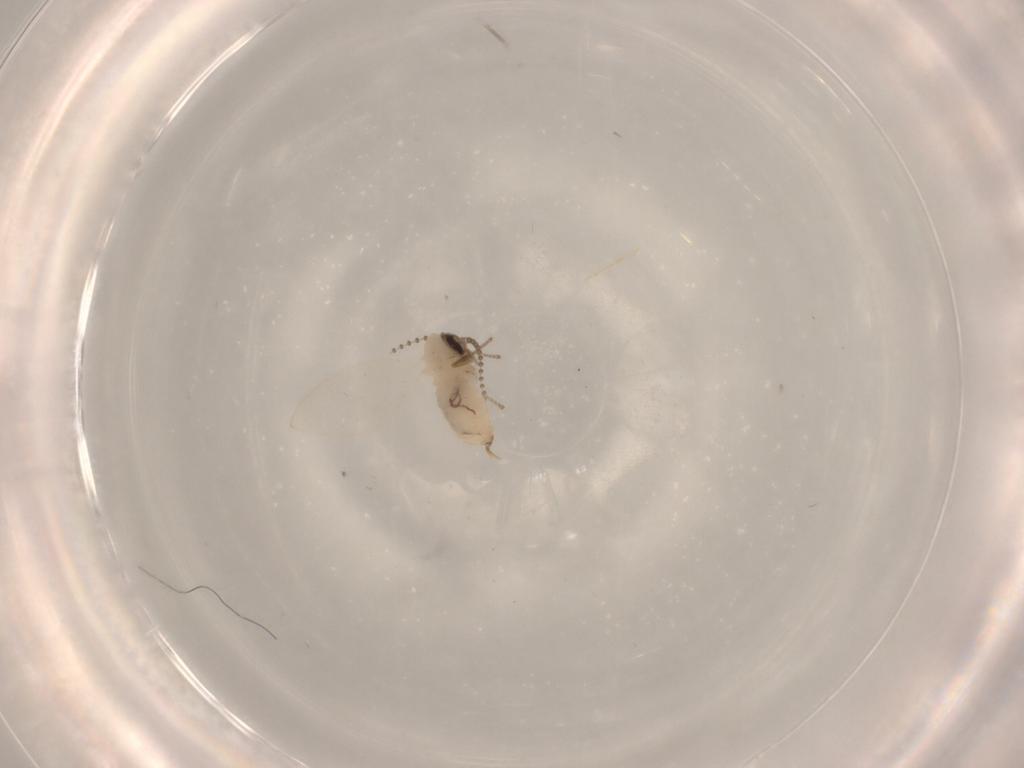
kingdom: Animalia
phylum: Arthropoda
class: Insecta
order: Diptera
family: Psychodidae
